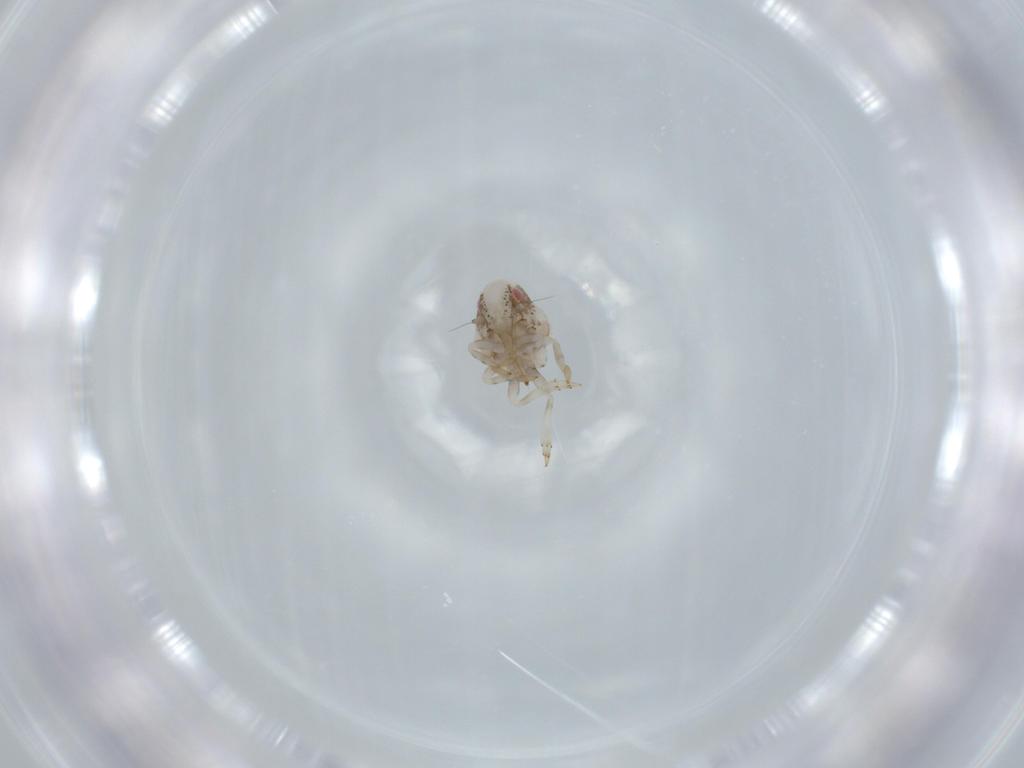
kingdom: Animalia
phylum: Arthropoda
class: Insecta
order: Hemiptera
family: Acanaloniidae
